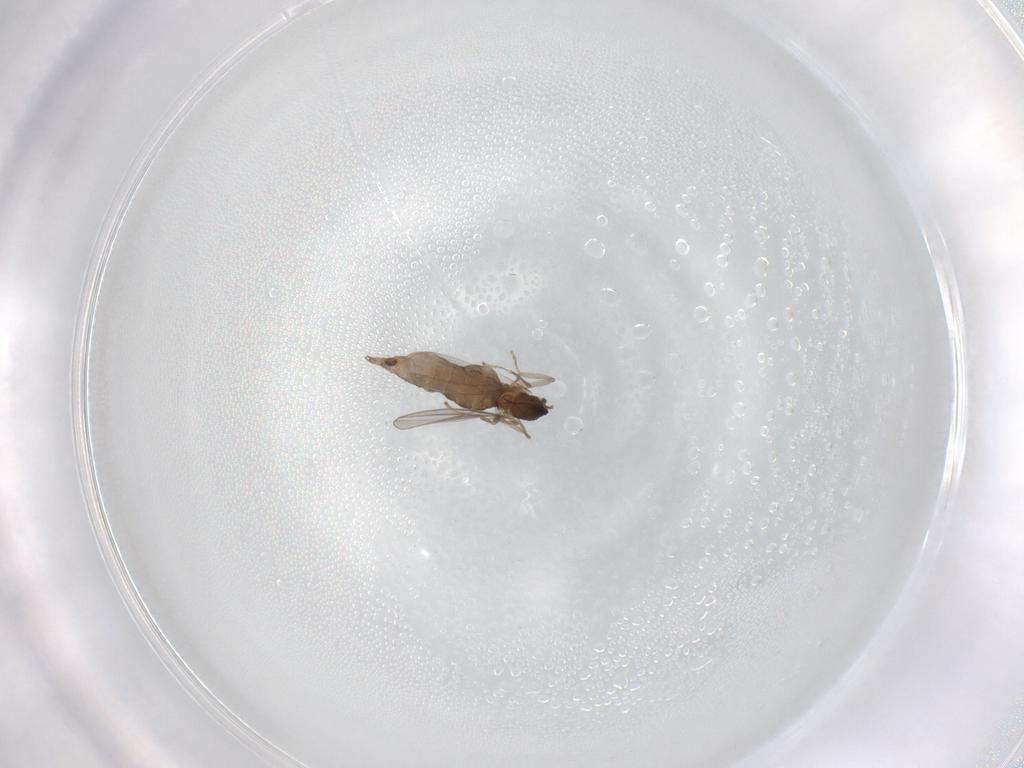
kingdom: Animalia
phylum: Arthropoda
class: Insecta
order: Diptera
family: Cecidomyiidae
